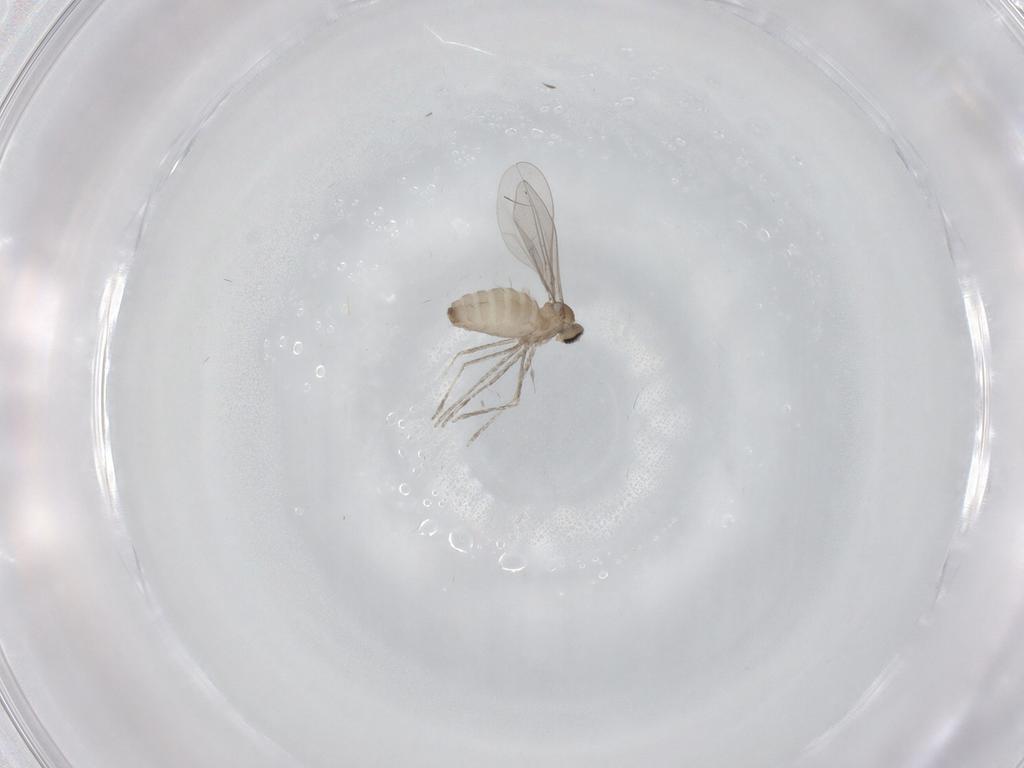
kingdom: Animalia
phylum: Arthropoda
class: Insecta
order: Diptera
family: Cecidomyiidae
